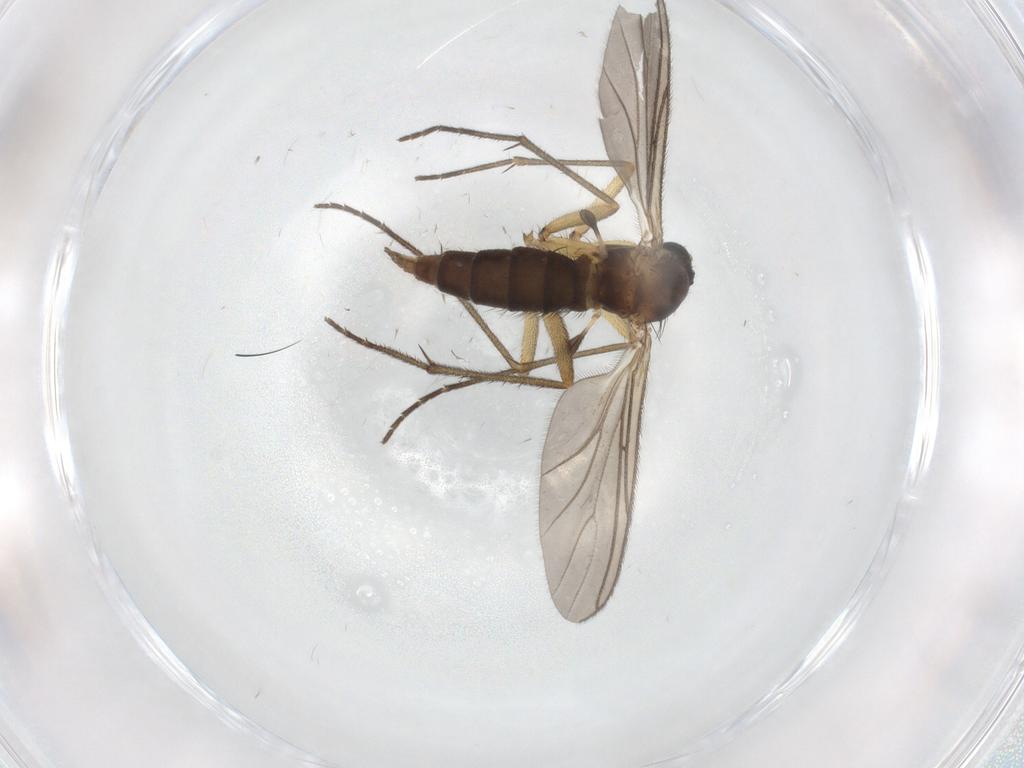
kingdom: Animalia
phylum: Arthropoda
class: Insecta
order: Diptera
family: Sciaridae
